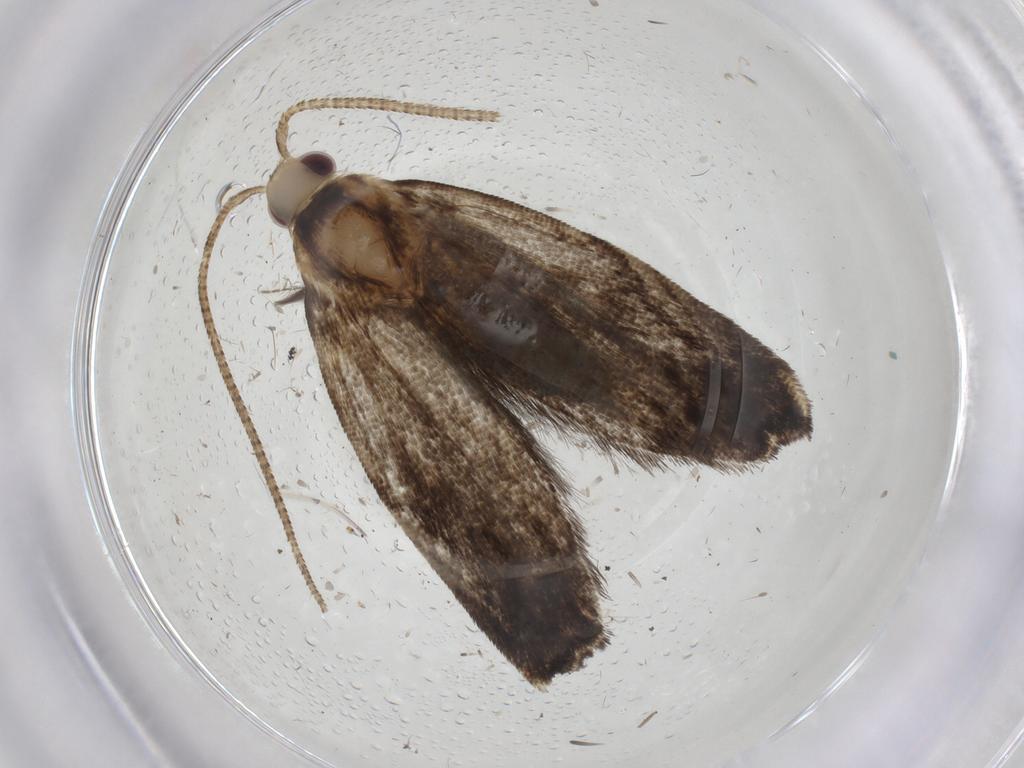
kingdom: Animalia
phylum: Arthropoda
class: Insecta
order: Lepidoptera
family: Gelechiidae
